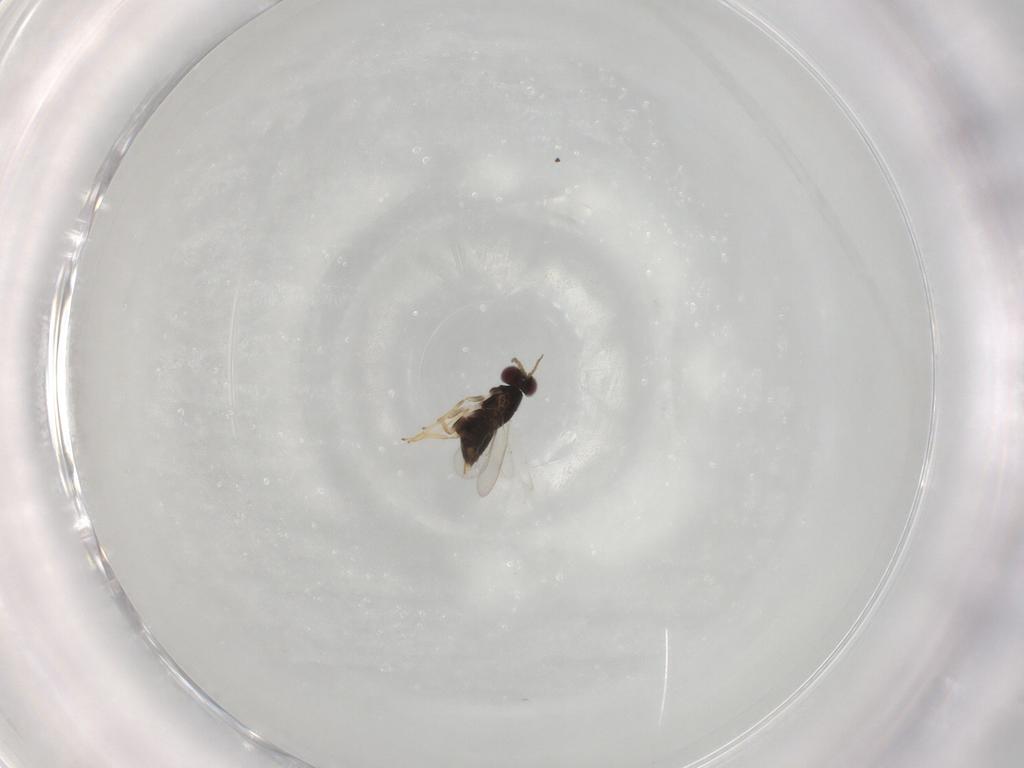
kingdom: Animalia
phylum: Arthropoda
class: Insecta
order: Hymenoptera
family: Aphelinidae
